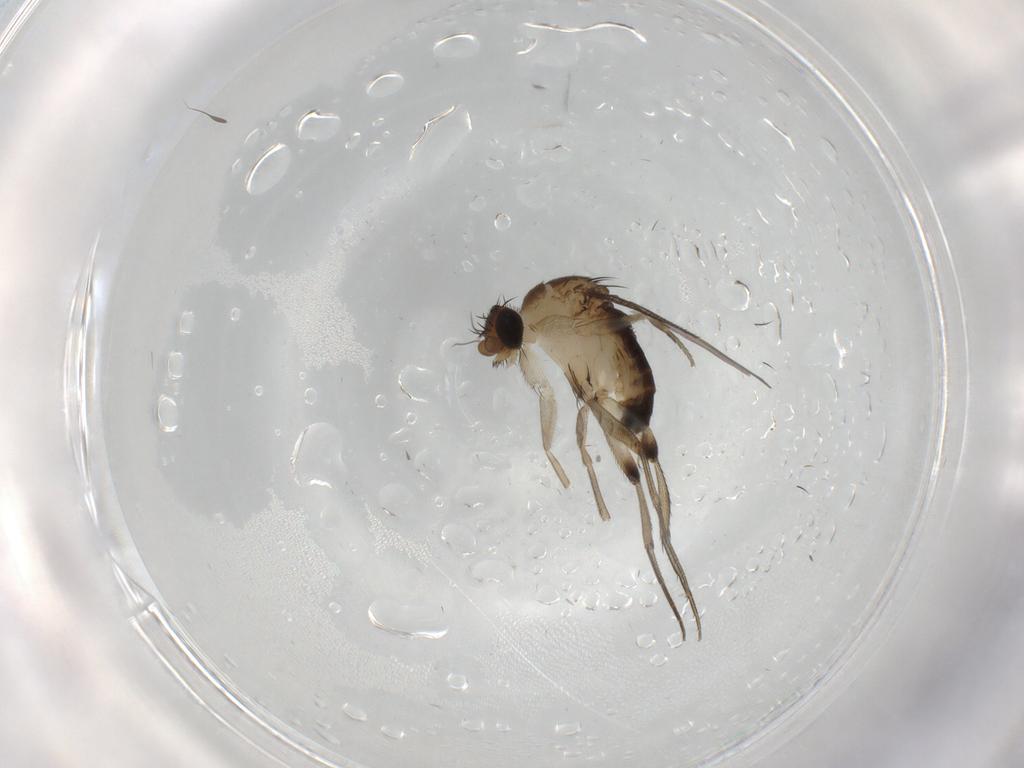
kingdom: Animalia
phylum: Arthropoda
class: Insecta
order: Diptera
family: Phoridae
